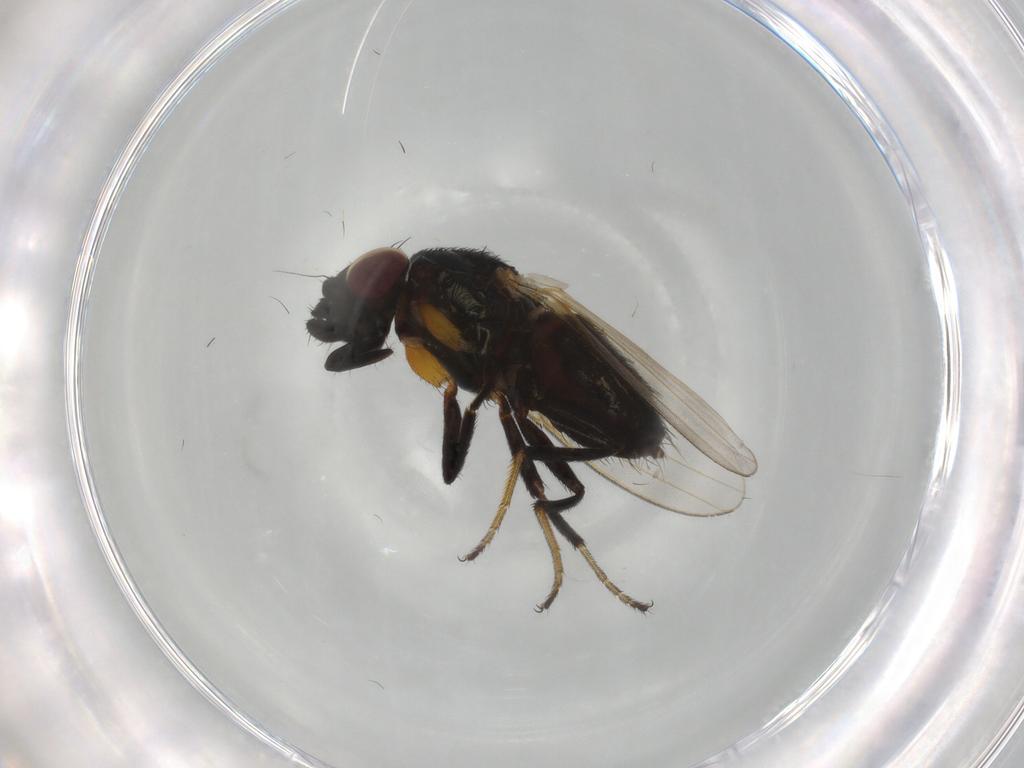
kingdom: Animalia
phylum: Arthropoda
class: Insecta
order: Diptera
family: Milichiidae
